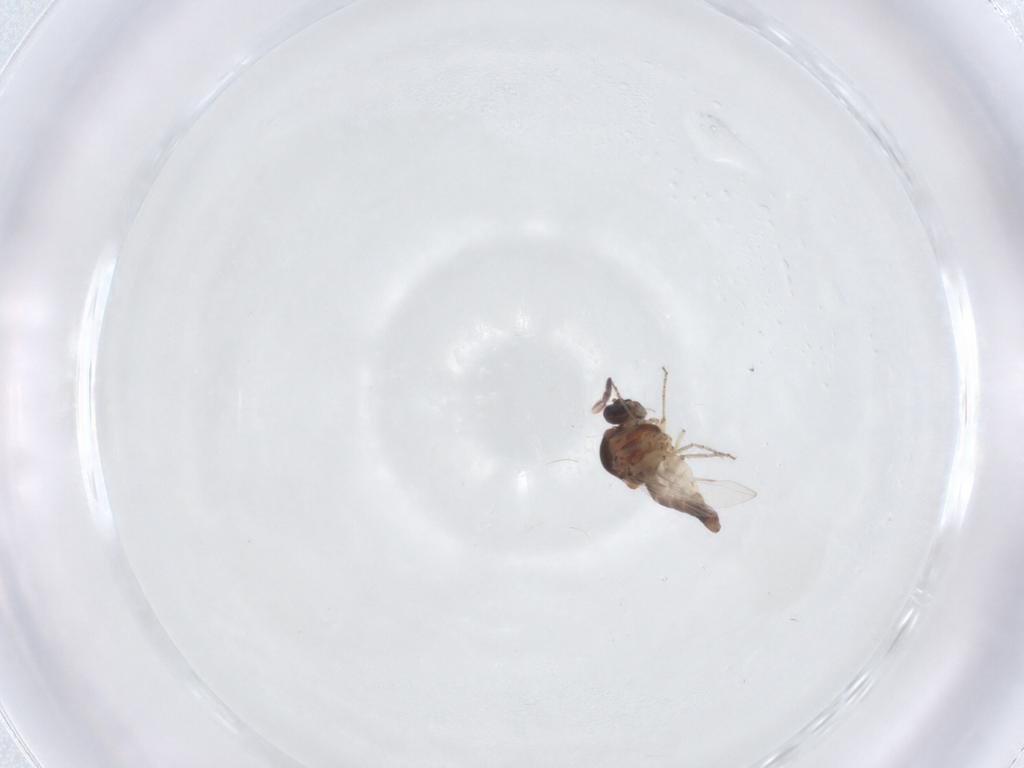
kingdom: Animalia
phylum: Arthropoda
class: Insecta
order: Diptera
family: Ceratopogonidae
